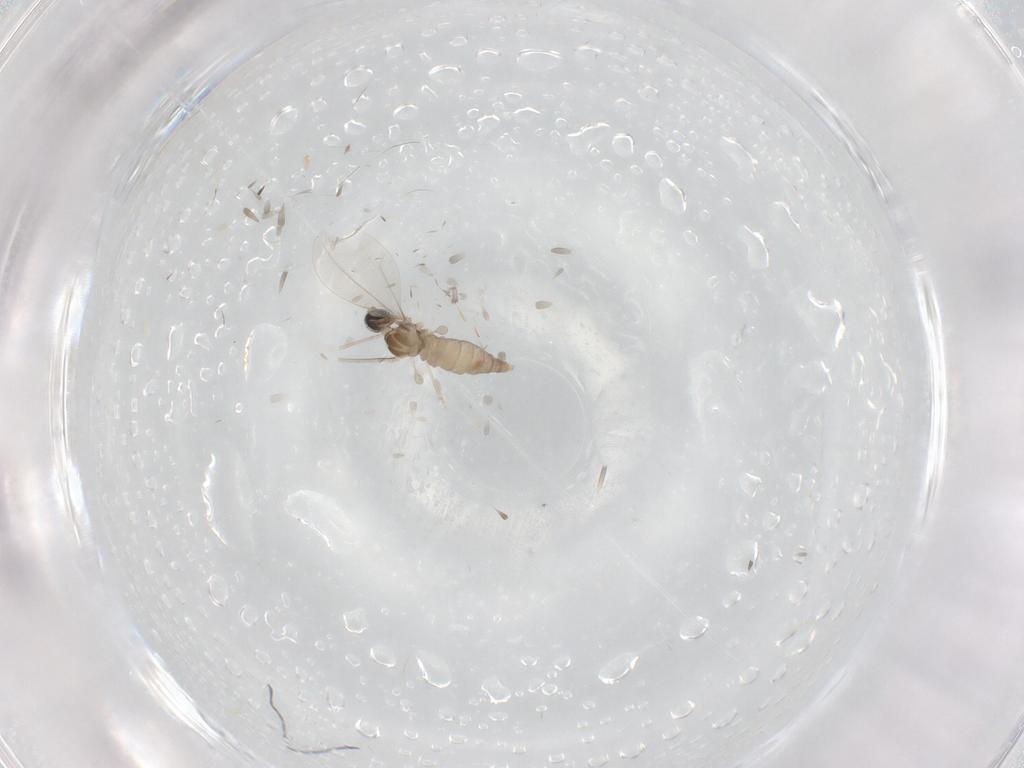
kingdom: Animalia
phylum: Arthropoda
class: Insecta
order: Diptera
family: Cecidomyiidae
